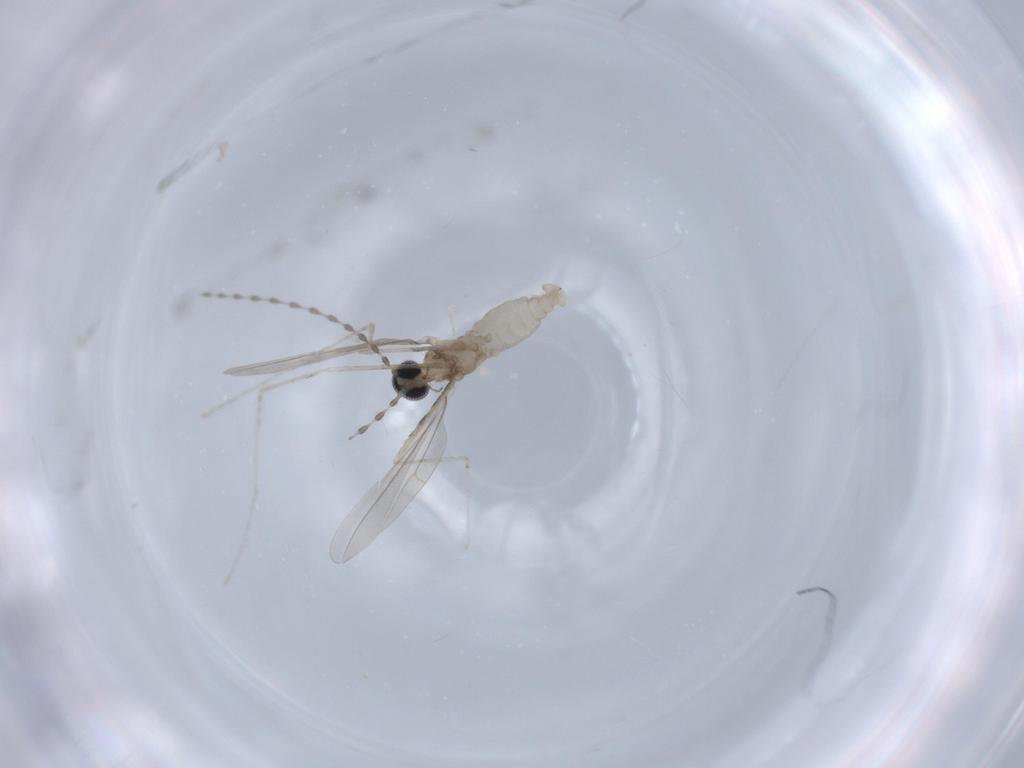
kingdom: Animalia
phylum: Arthropoda
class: Insecta
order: Diptera
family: Cecidomyiidae
